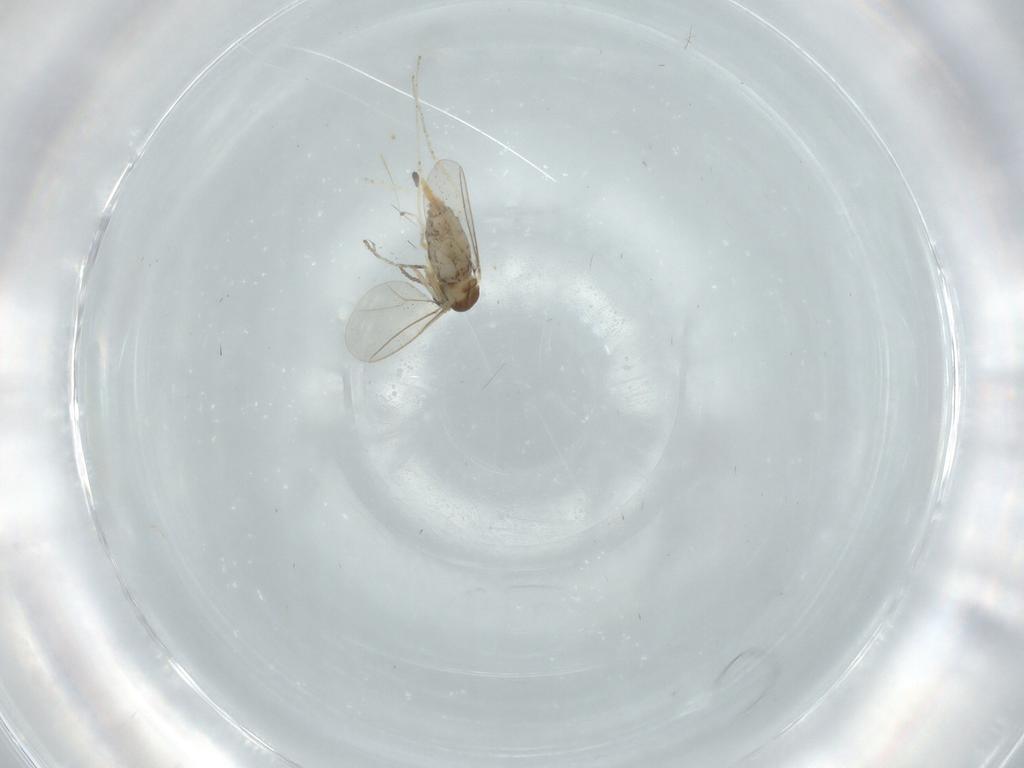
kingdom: Animalia
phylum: Arthropoda
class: Insecta
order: Diptera
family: Cecidomyiidae
